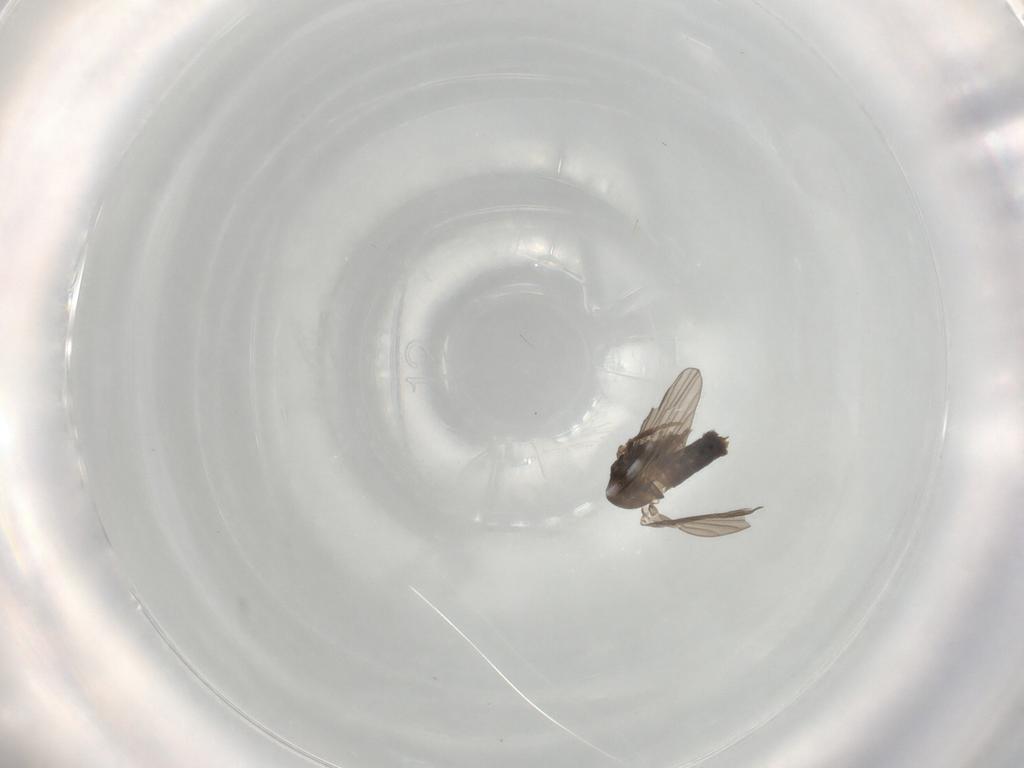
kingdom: Animalia
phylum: Arthropoda
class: Insecta
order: Diptera
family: Cecidomyiidae
